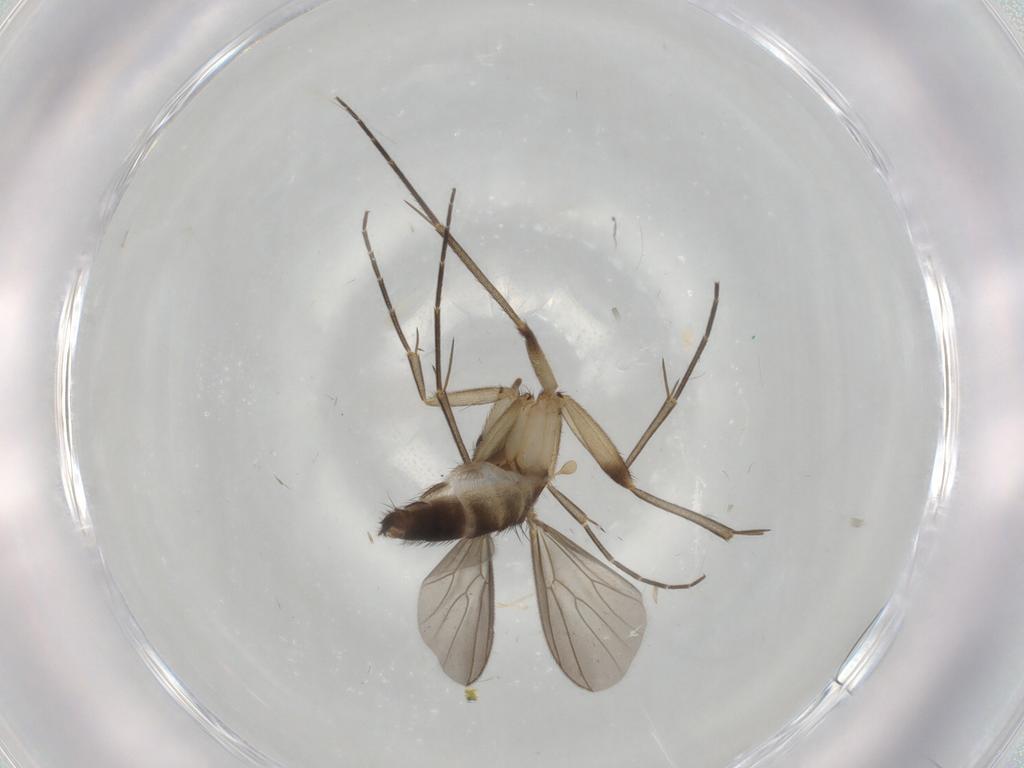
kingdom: Animalia
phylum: Arthropoda
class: Insecta
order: Diptera
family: Mycetophilidae
